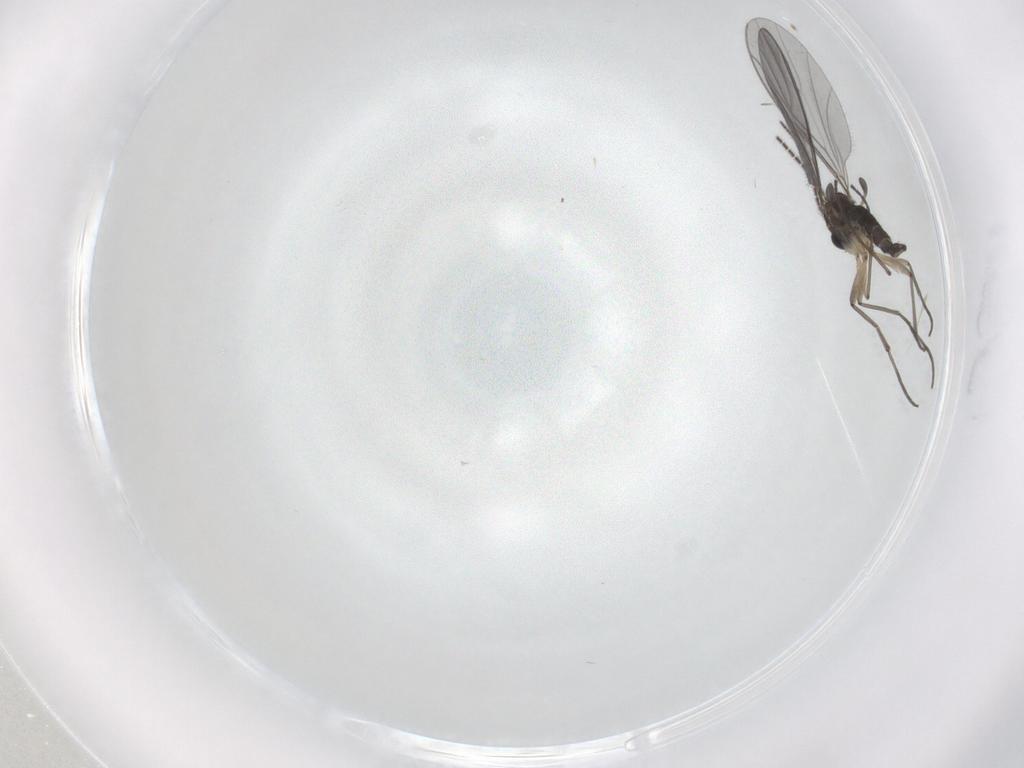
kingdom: Animalia
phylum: Arthropoda
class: Insecta
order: Diptera
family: Sciaridae
